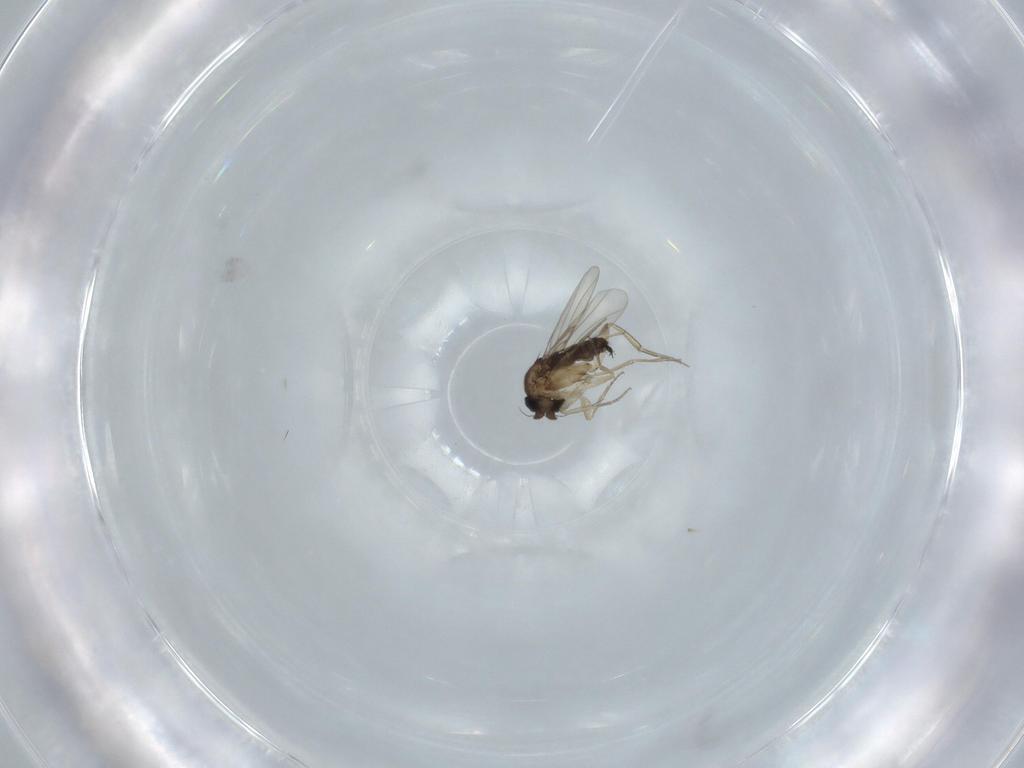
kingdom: Animalia
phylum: Arthropoda
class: Insecta
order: Diptera
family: Phoridae
